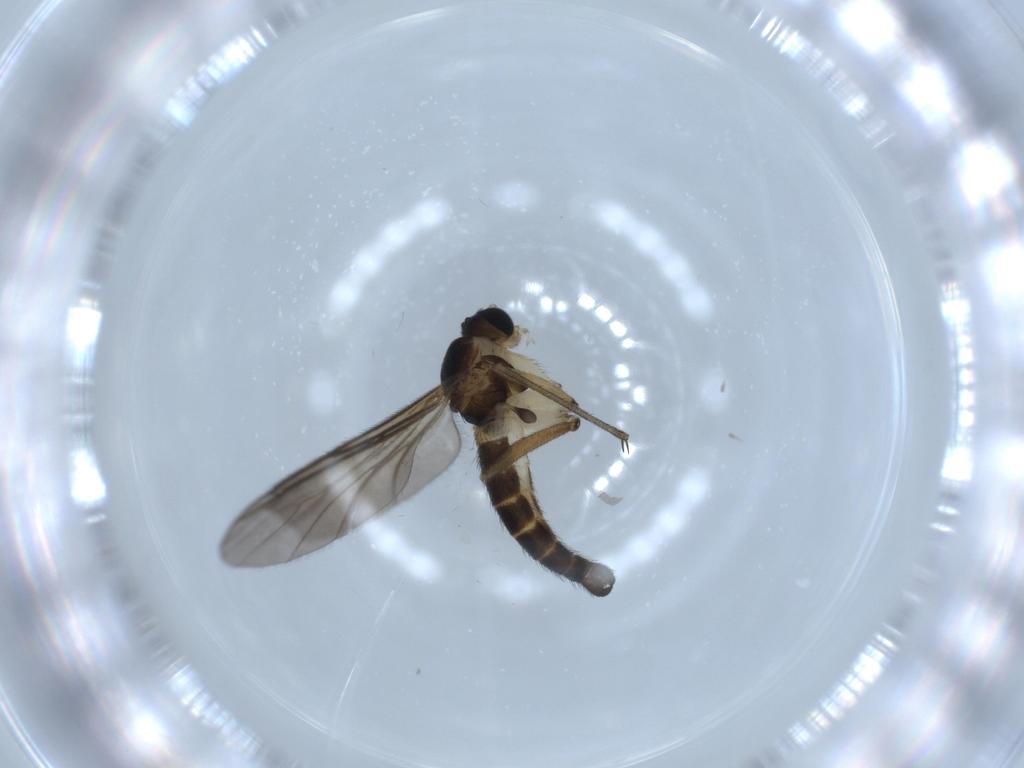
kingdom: Animalia
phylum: Arthropoda
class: Insecta
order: Diptera
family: Sciaridae
